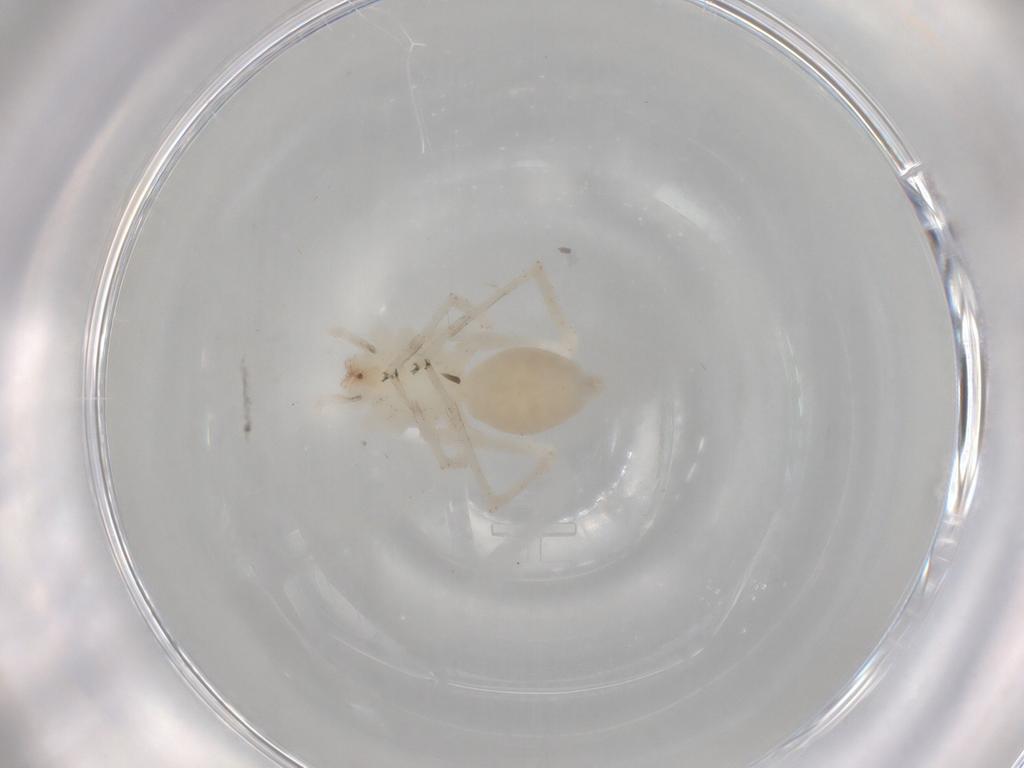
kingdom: Animalia
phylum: Arthropoda
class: Arachnida
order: Araneae
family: Anyphaenidae
